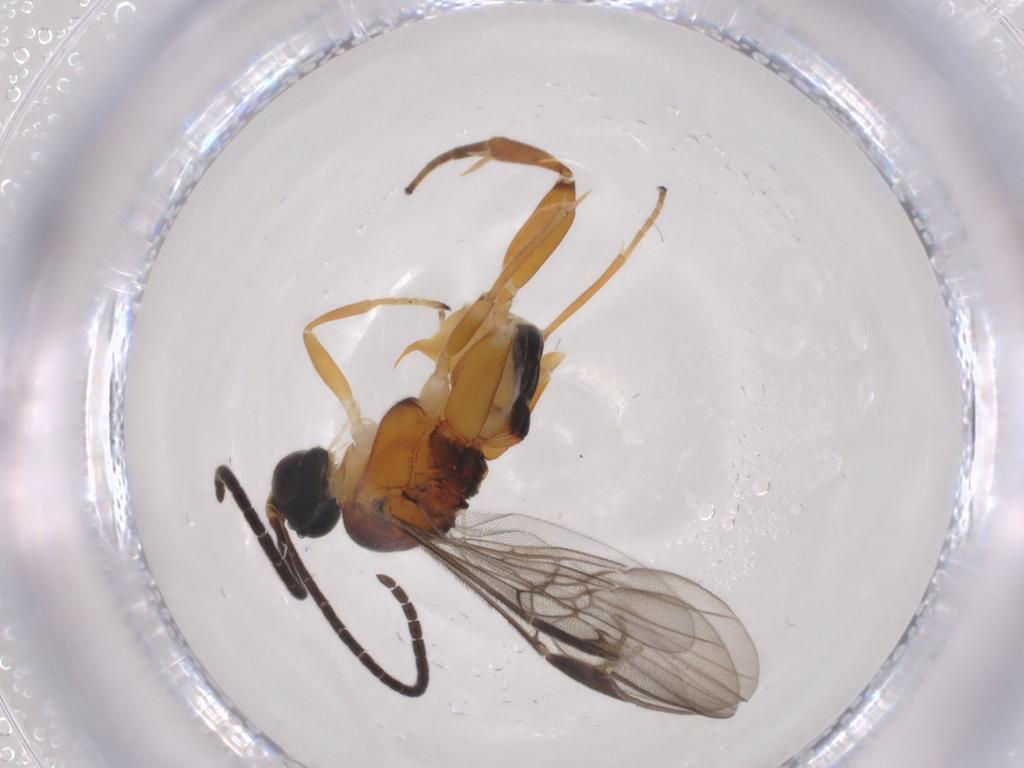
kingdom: Animalia
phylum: Arthropoda
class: Insecta
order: Hymenoptera
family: Braconidae
